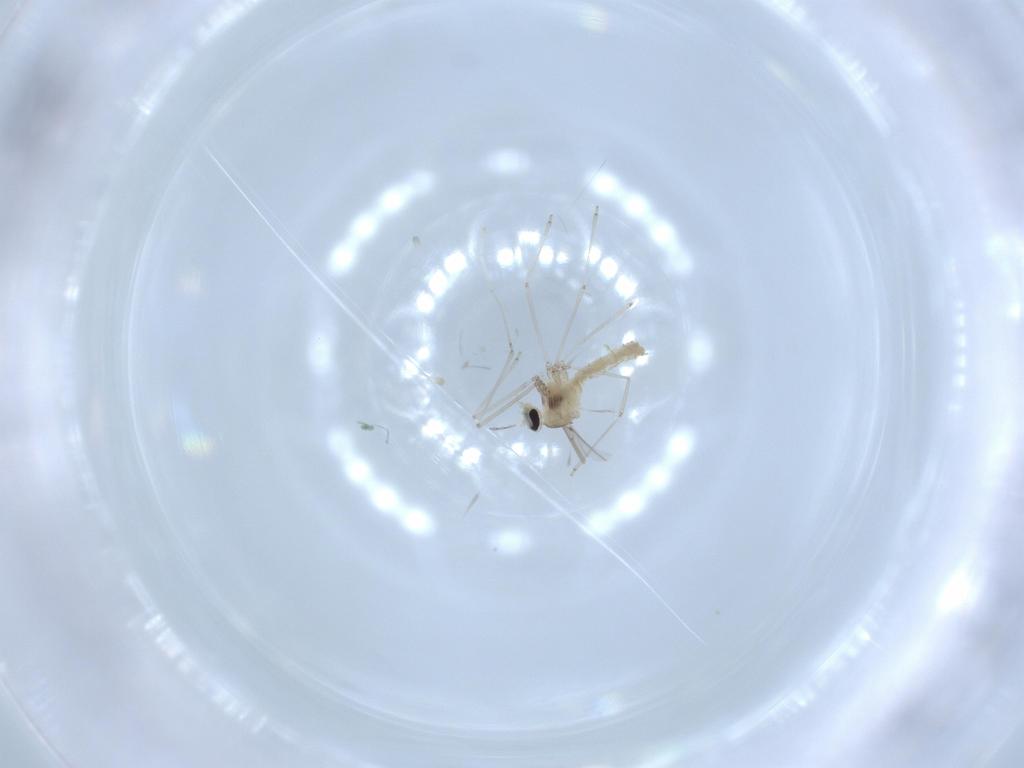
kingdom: Animalia
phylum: Arthropoda
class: Insecta
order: Diptera
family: Cecidomyiidae
